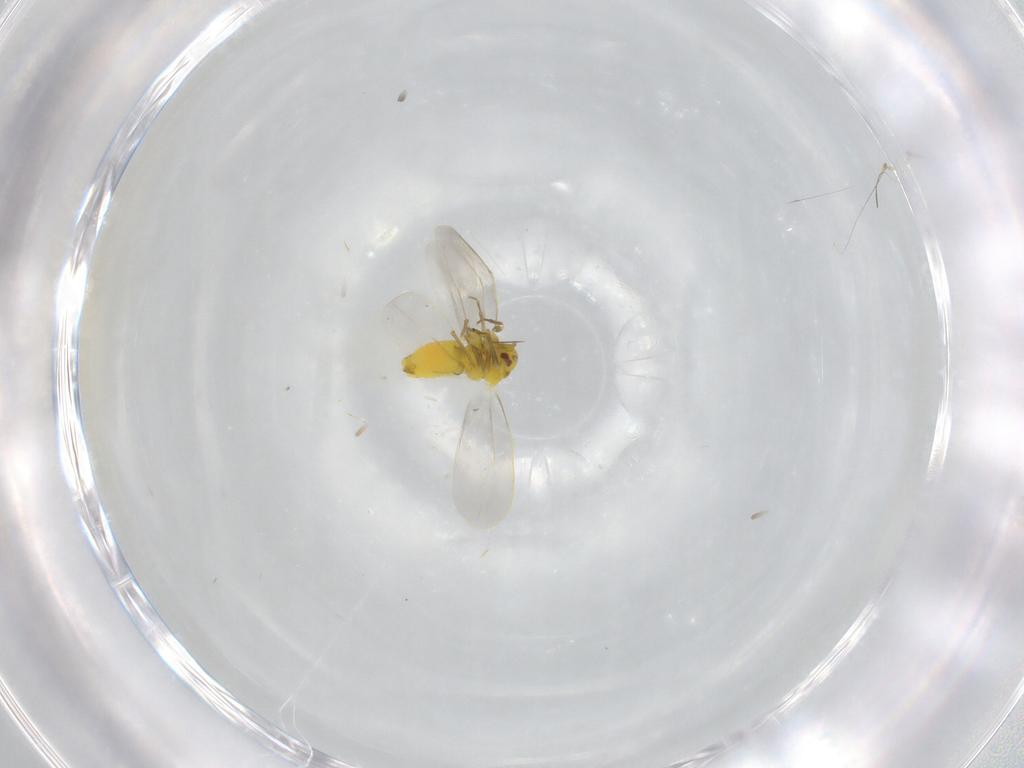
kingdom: Animalia
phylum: Arthropoda
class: Insecta
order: Hemiptera
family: Aleyrodidae
